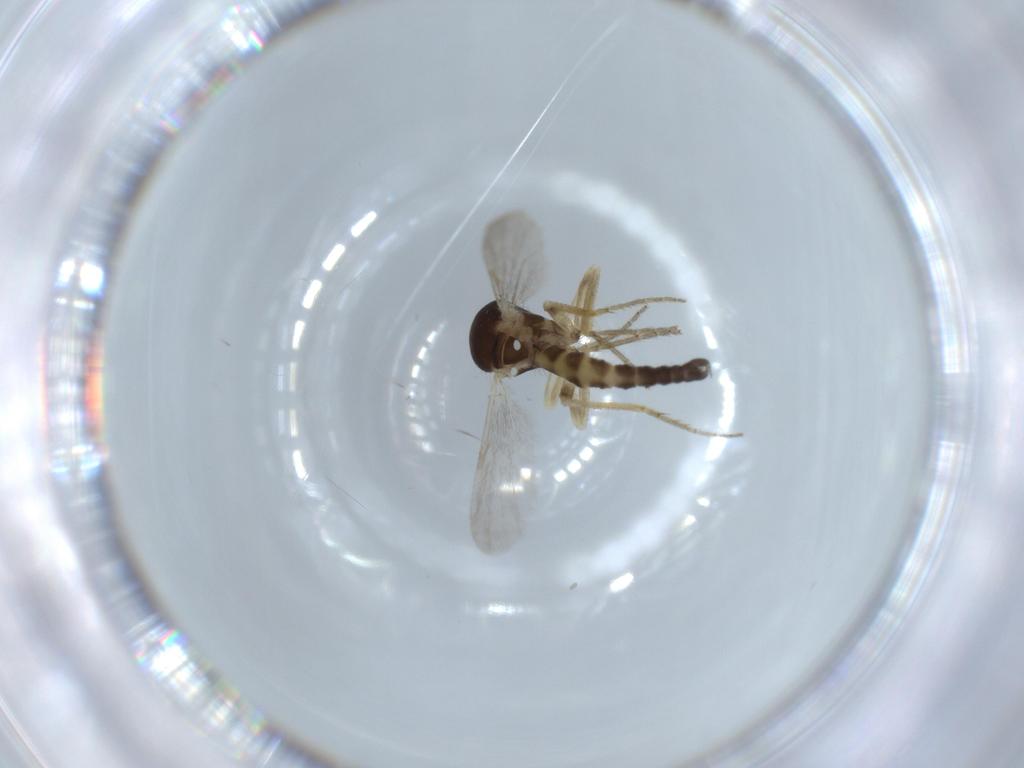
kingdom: Animalia
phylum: Arthropoda
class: Insecta
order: Diptera
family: Ceratopogonidae
